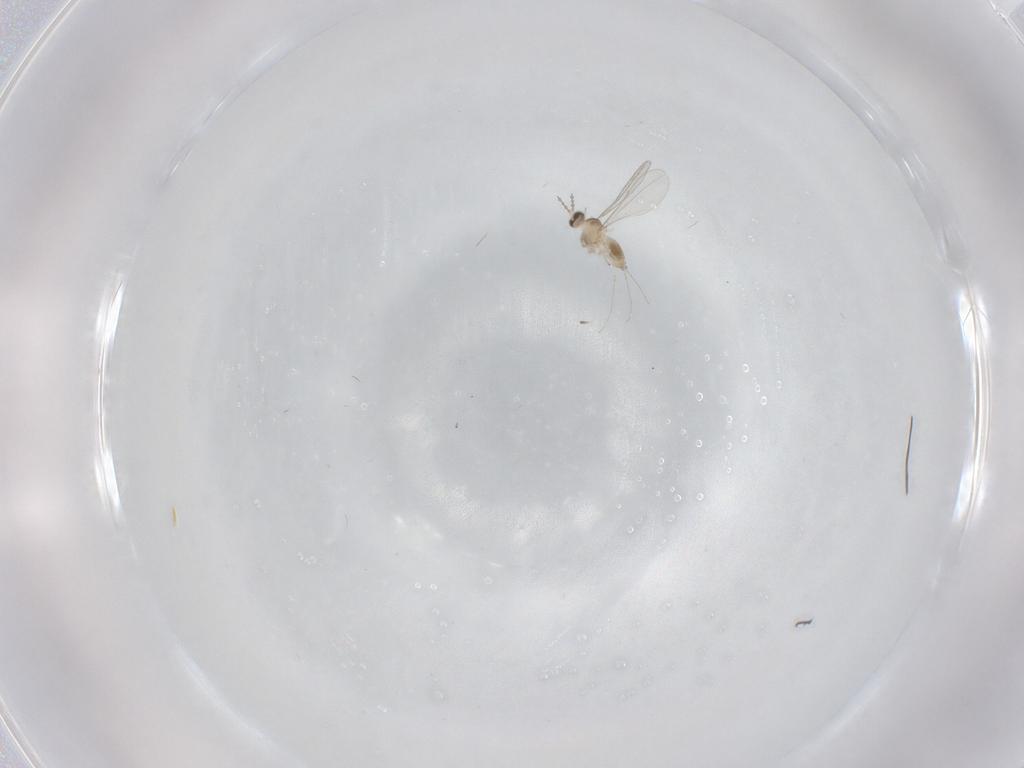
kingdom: Animalia
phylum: Arthropoda
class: Insecta
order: Diptera
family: Cecidomyiidae
